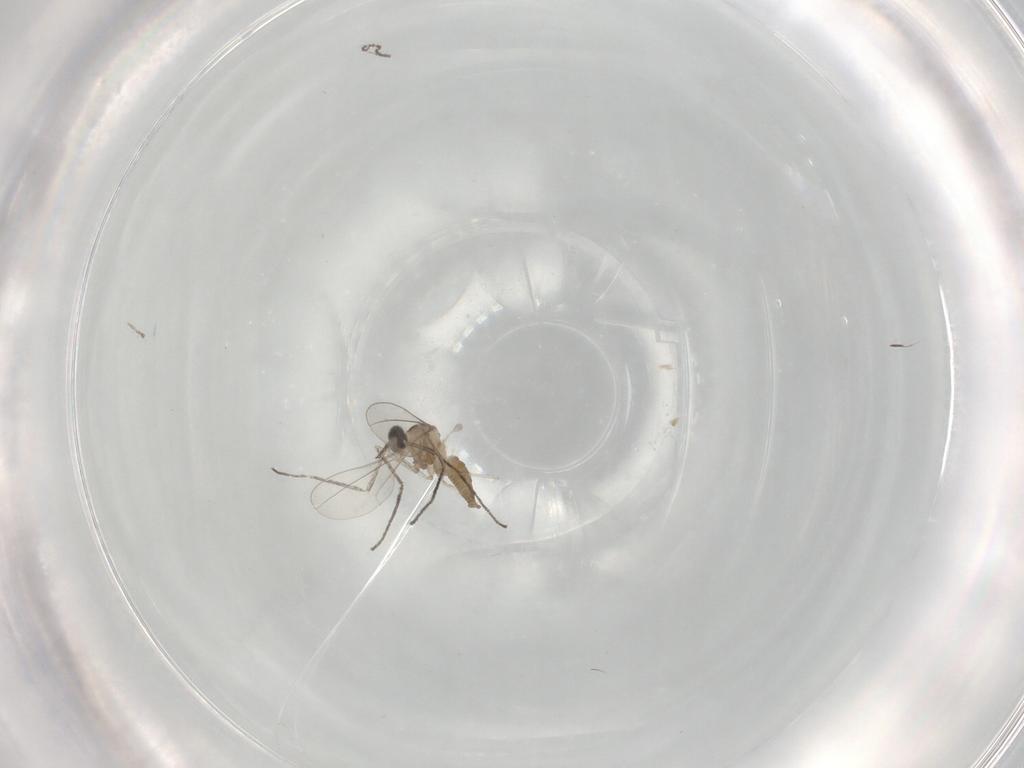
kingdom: Animalia
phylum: Arthropoda
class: Insecta
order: Diptera
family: Cecidomyiidae
